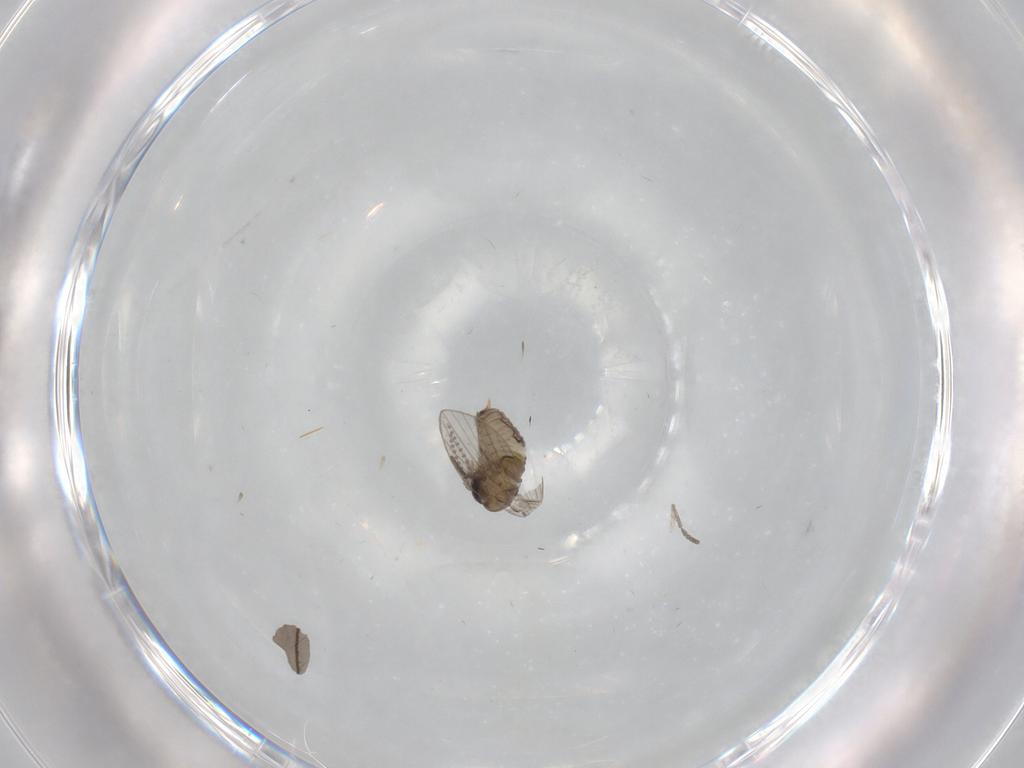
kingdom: Animalia
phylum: Arthropoda
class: Insecta
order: Diptera
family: Psychodidae
